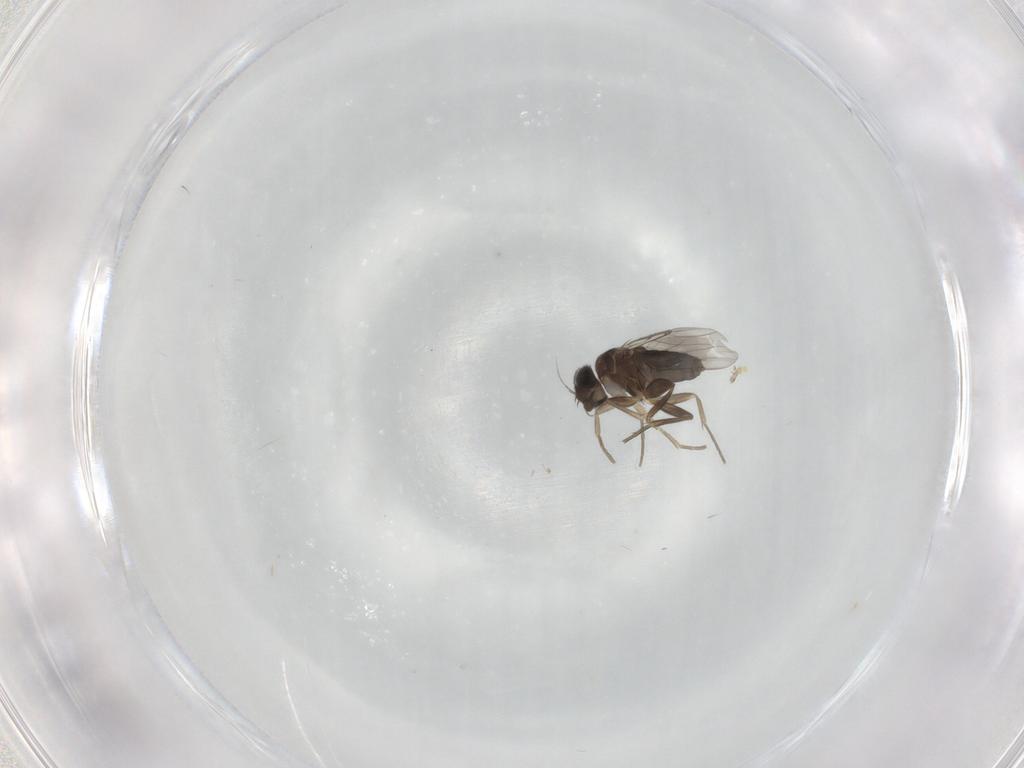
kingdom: Animalia
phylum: Arthropoda
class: Insecta
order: Diptera
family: Phoridae
